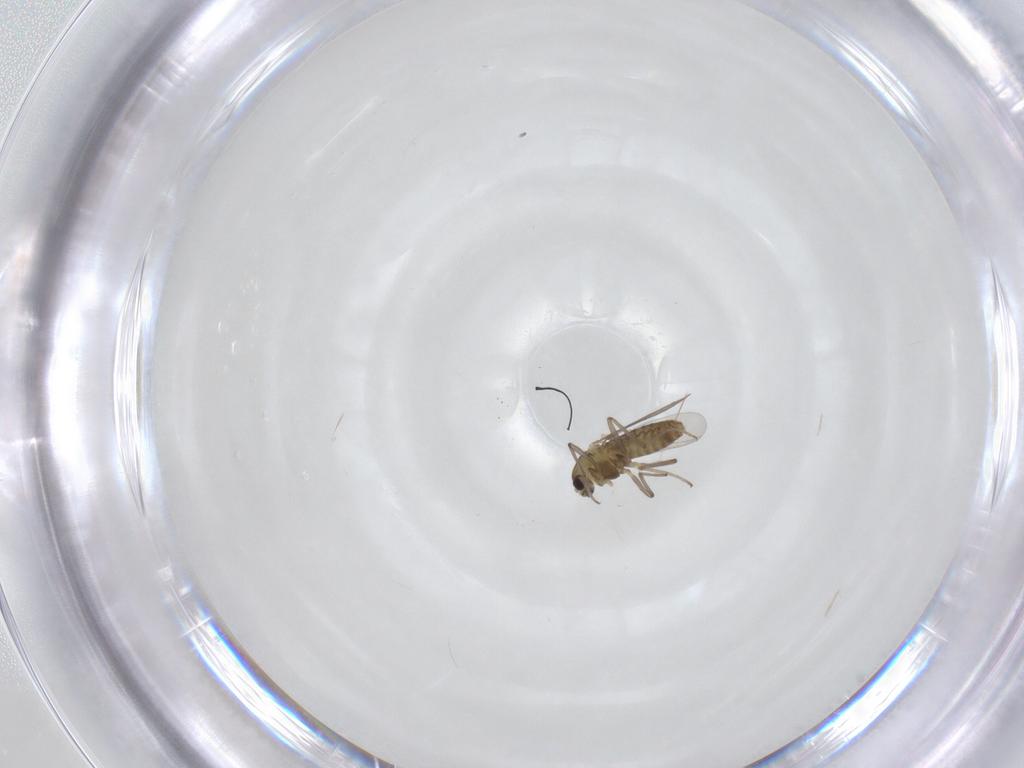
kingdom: Animalia
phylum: Arthropoda
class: Insecta
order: Diptera
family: Chironomidae
